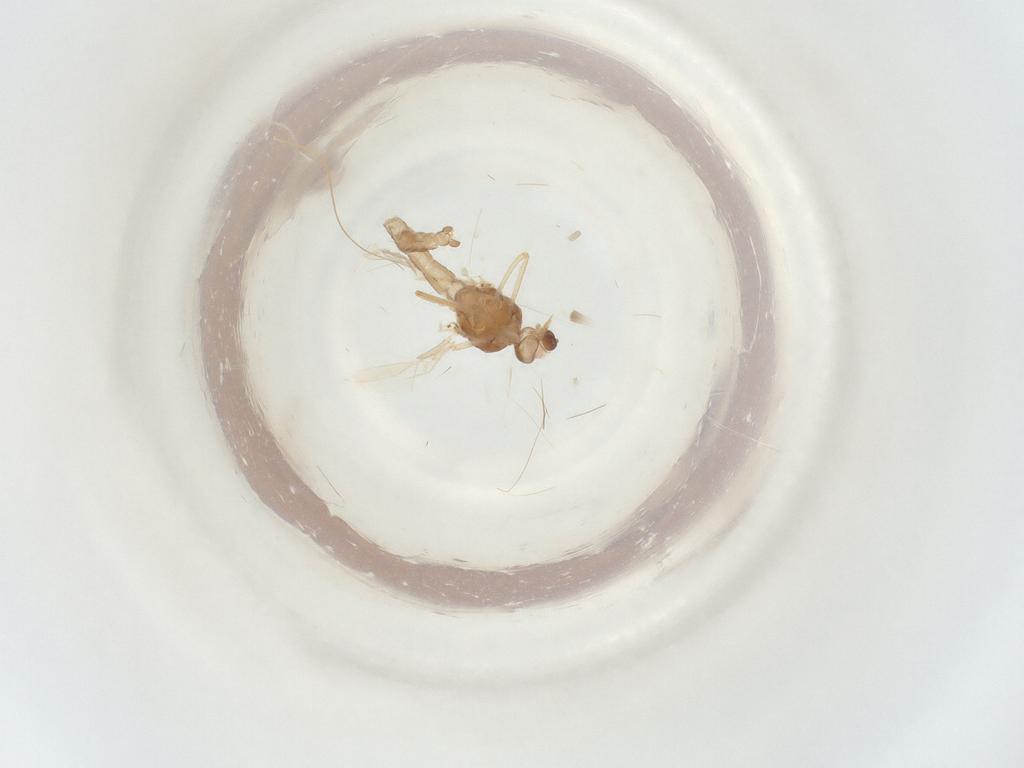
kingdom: Animalia
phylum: Arthropoda
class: Insecta
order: Diptera
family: Ceratopogonidae
